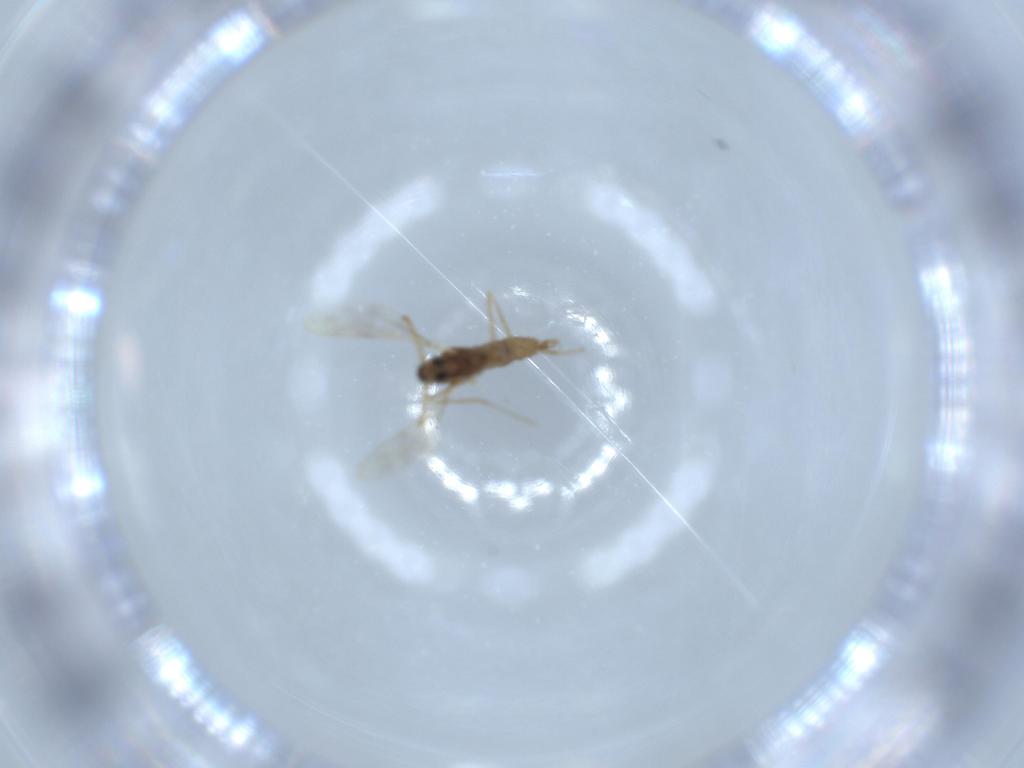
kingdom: Animalia
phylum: Arthropoda
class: Insecta
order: Diptera
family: Cecidomyiidae
